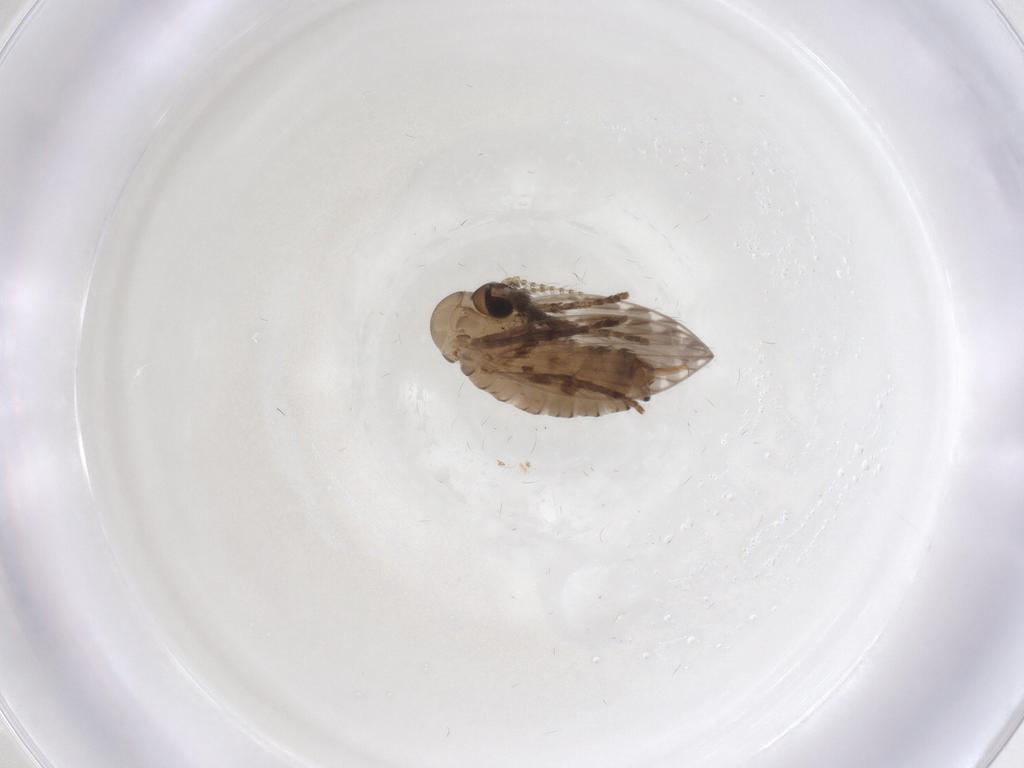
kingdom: Animalia
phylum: Arthropoda
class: Insecta
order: Diptera
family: Psychodidae
